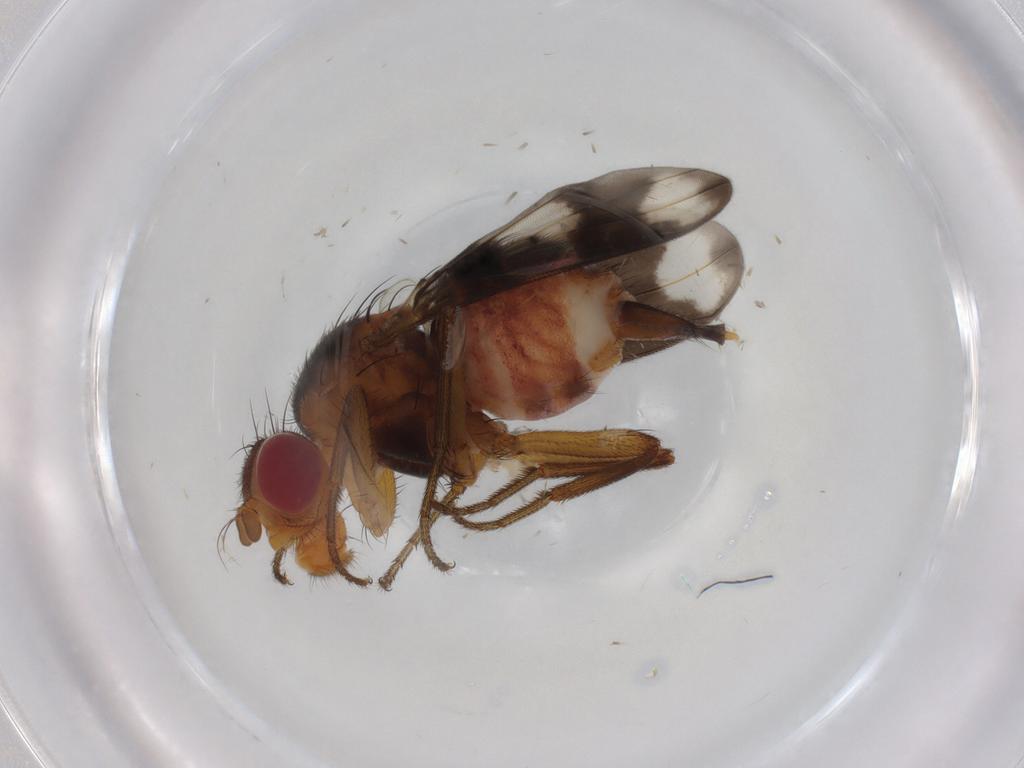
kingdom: Animalia
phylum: Arthropoda
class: Insecta
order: Diptera
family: Richardiidae
